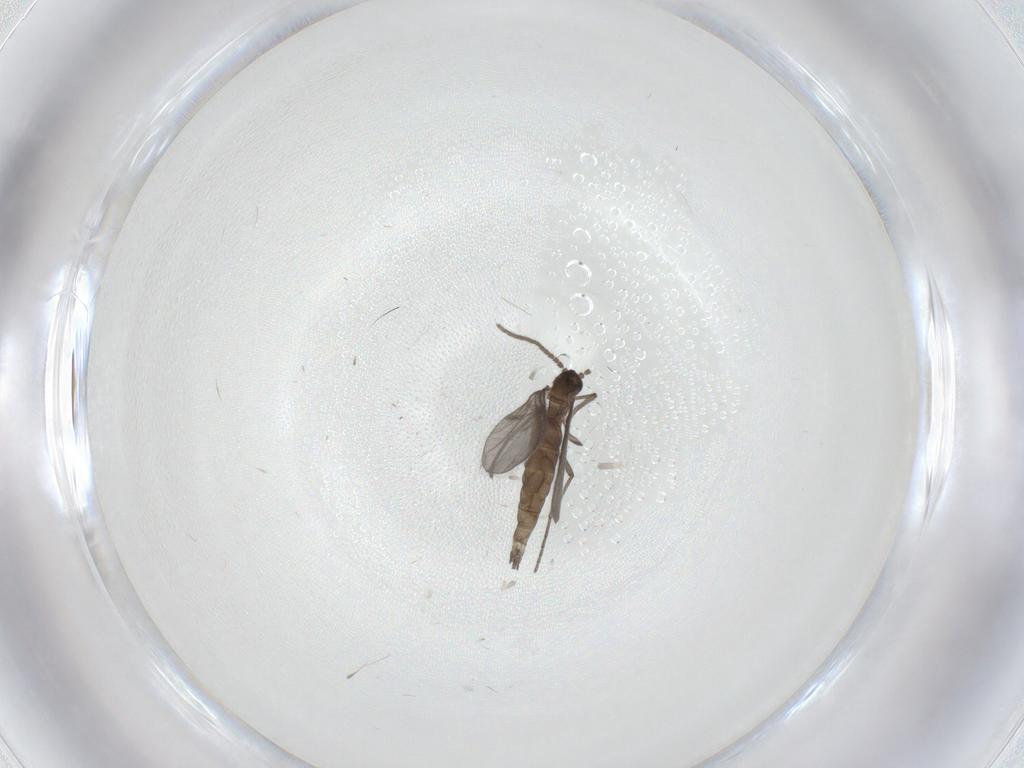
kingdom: Animalia
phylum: Arthropoda
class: Insecta
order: Diptera
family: Sciaridae
